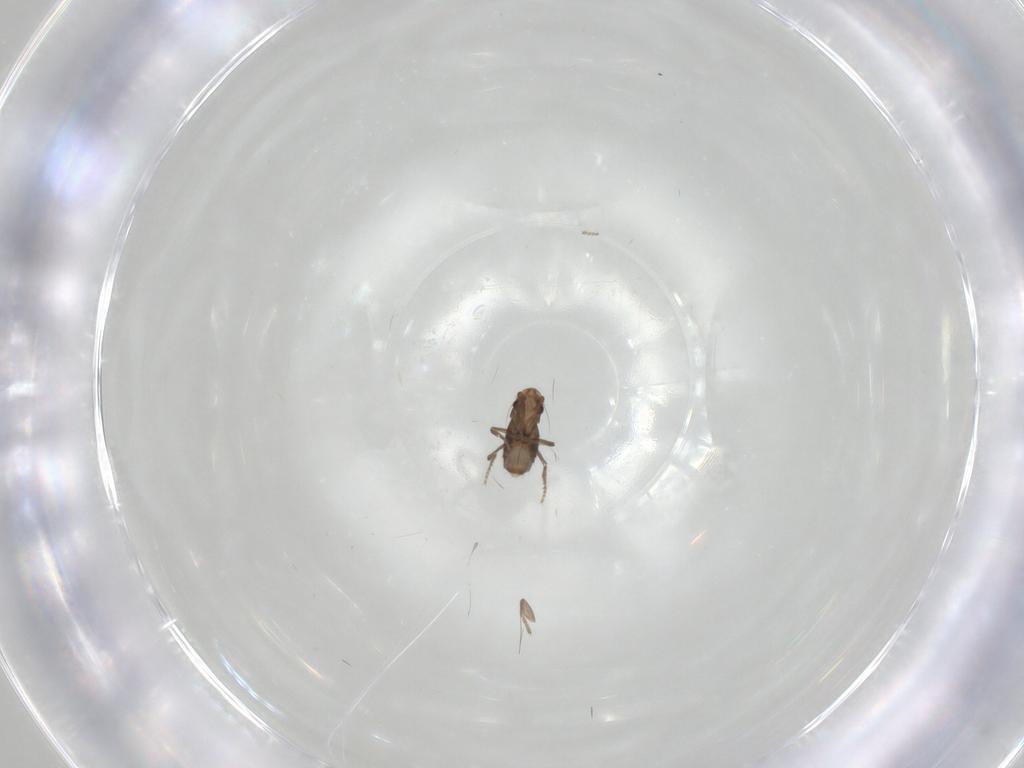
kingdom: Animalia
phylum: Arthropoda
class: Insecta
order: Diptera
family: Phoridae
